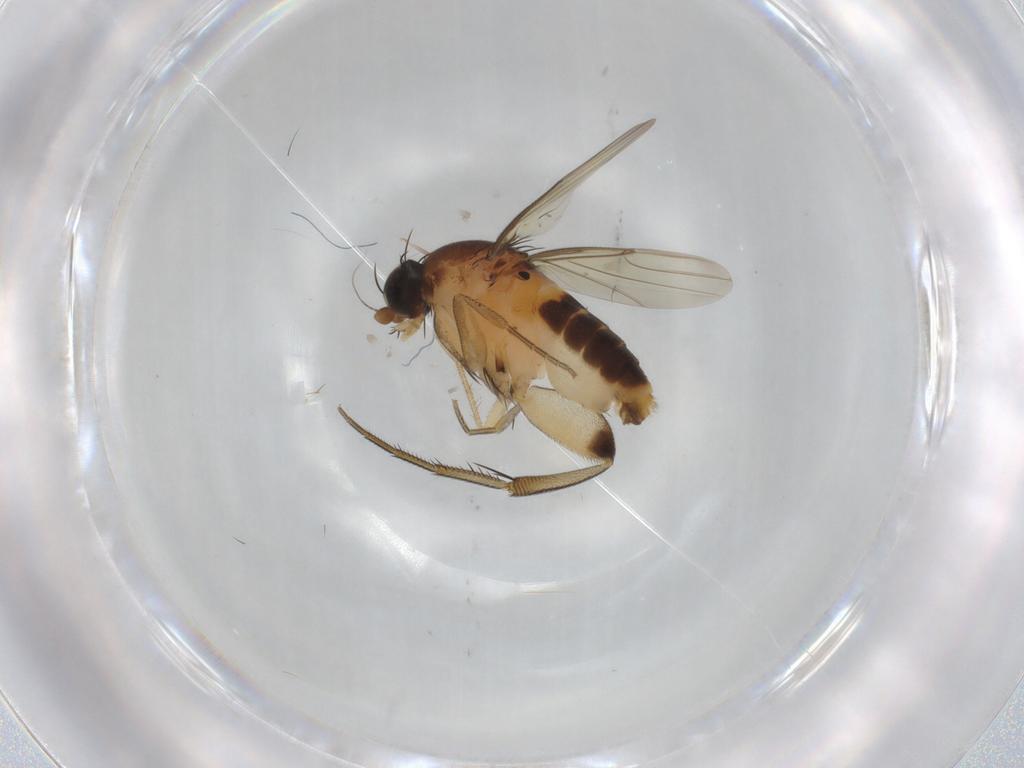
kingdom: Animalia
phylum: Arthropoda
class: Insecta
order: Diptera
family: Phoridae
